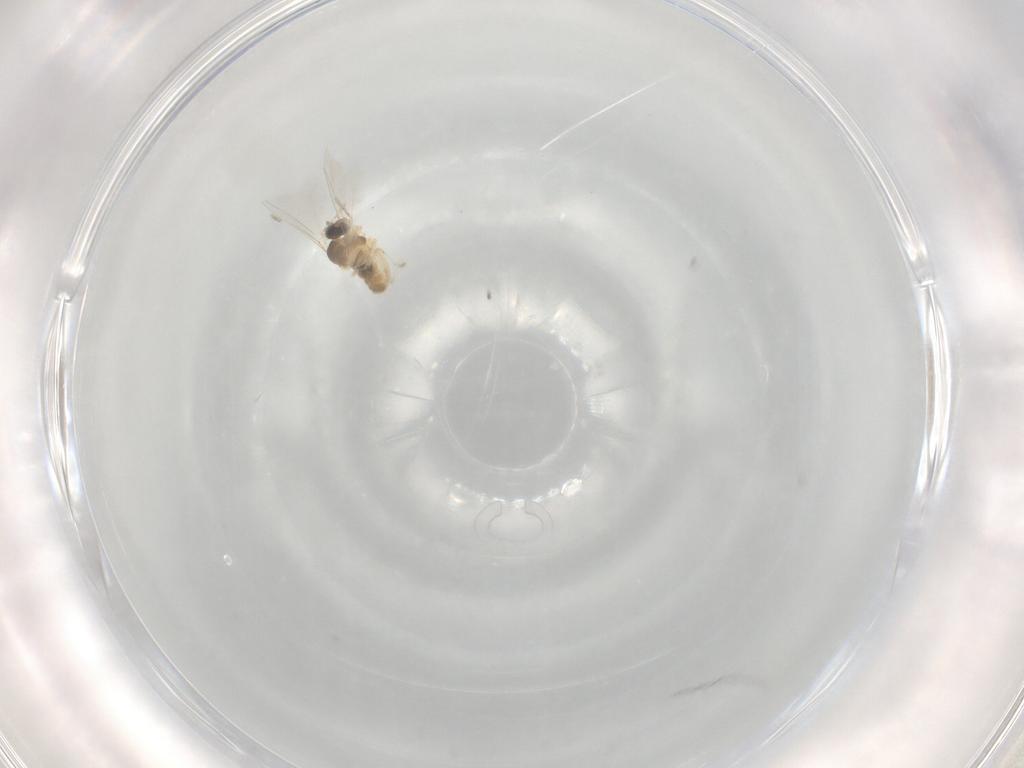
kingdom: Animalia
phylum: Arthropoda
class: Insecta
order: Diptera
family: Cecidomyiidae
